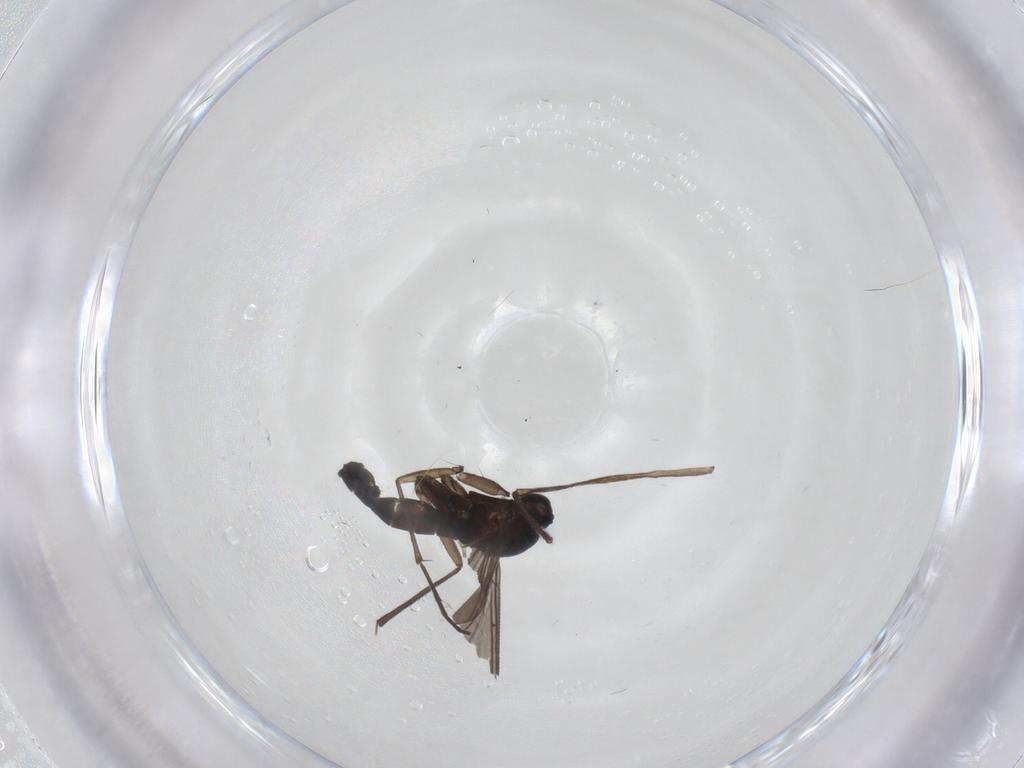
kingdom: Animalia
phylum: Arthropoda
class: Insecta
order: Diptera
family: Sciaridae
